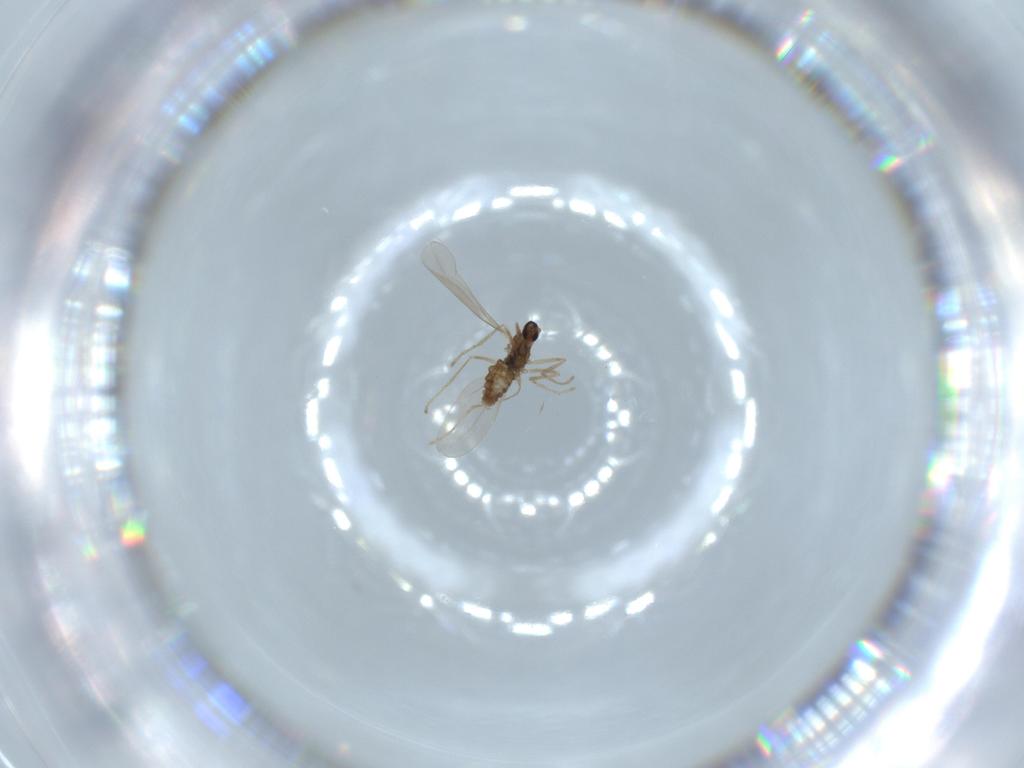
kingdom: Animalia
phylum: Arthropoda
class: Insecta
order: Diptera
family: Cecidomyiidae
